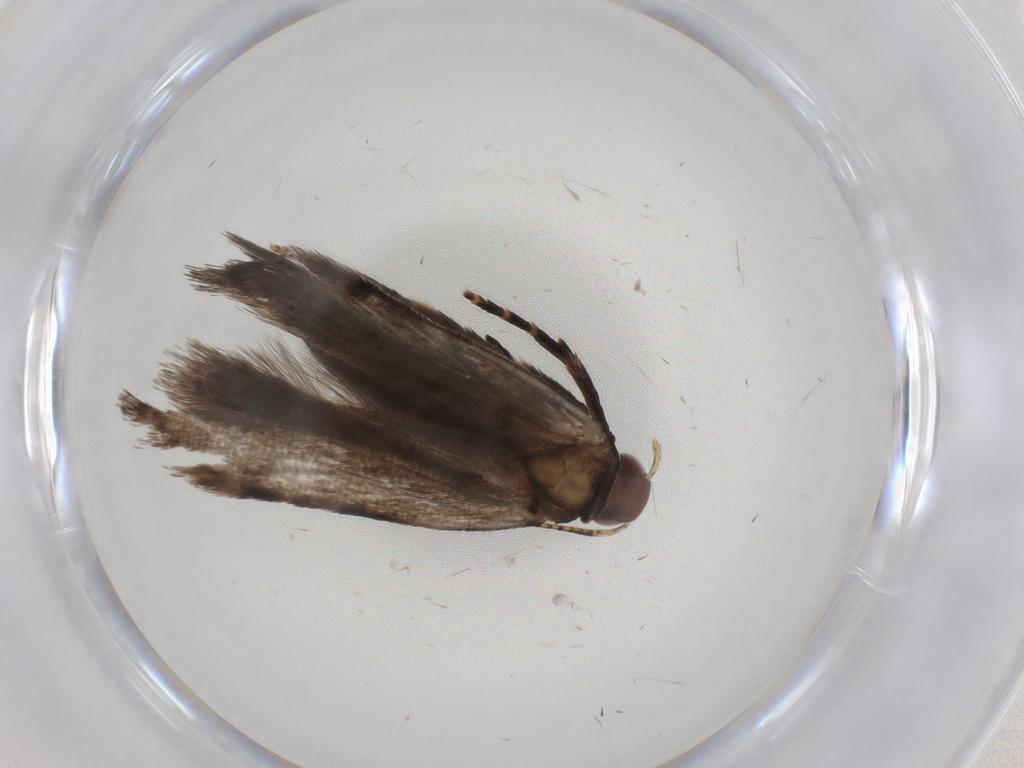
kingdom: Animalia
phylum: Arthropoda
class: Insecta
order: Lepidoptera
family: Gelechiidae
